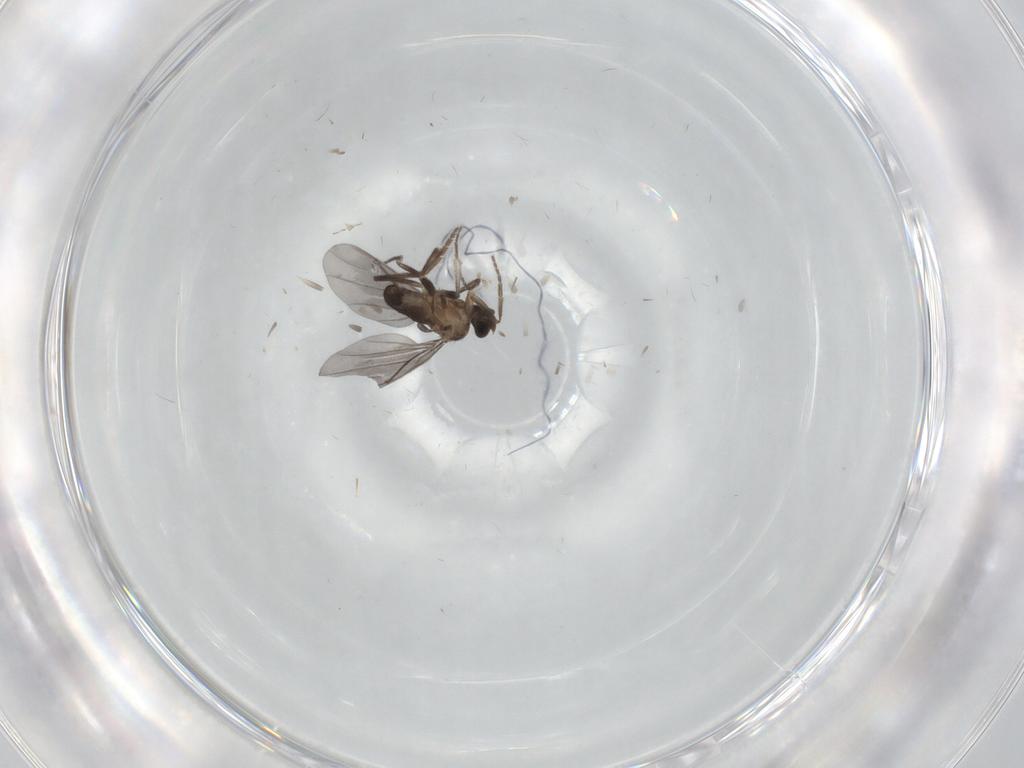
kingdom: Animalia
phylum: Arthropoda
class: Insecta
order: Diptera
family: Phoridae
